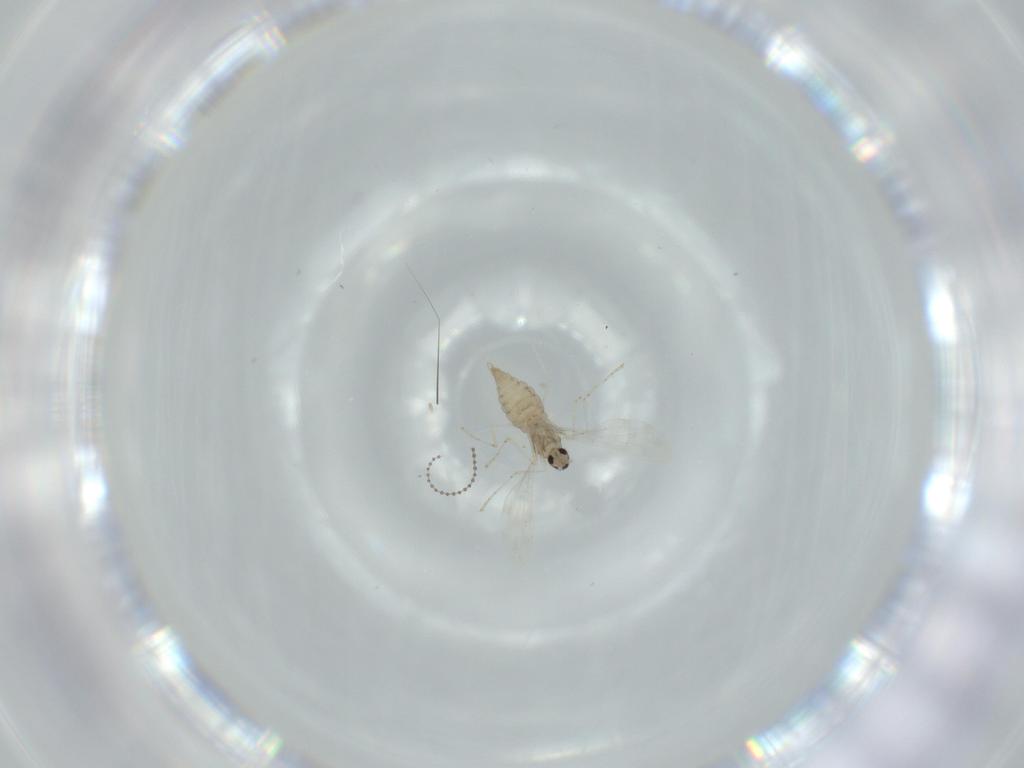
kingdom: Animalia
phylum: Arthropoda
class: Insecta
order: Diptera
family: Cecidomyiidae
